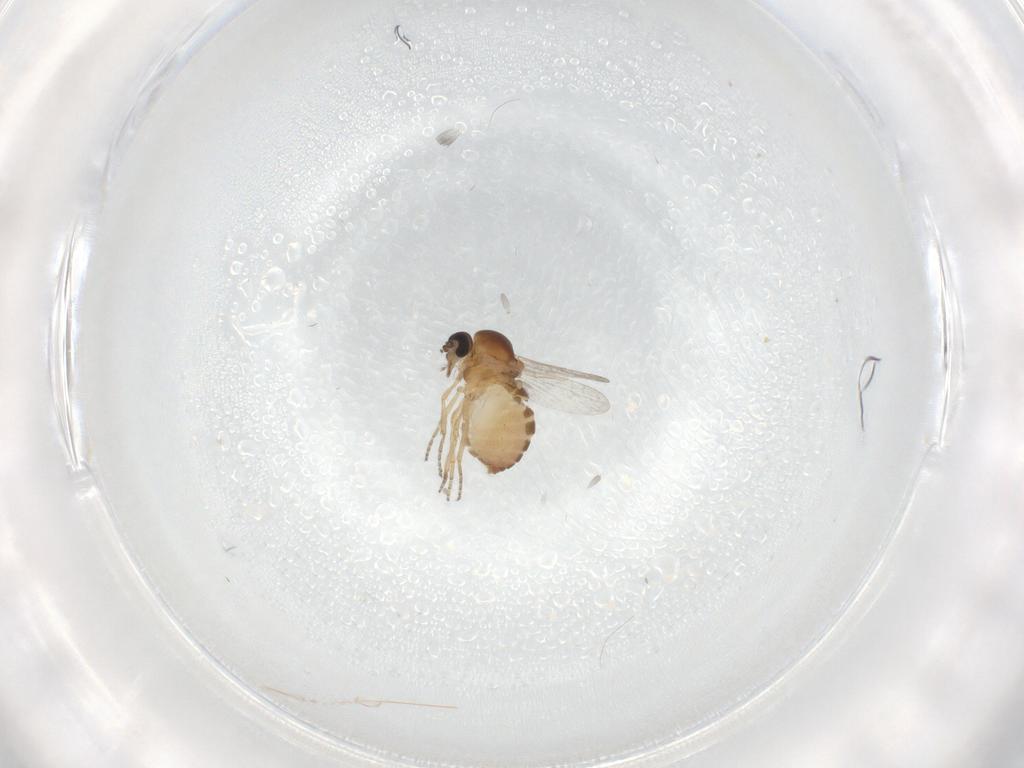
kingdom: Animalia
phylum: Arthropoda
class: Insecta
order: Diptera
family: Ceratopogonidae
